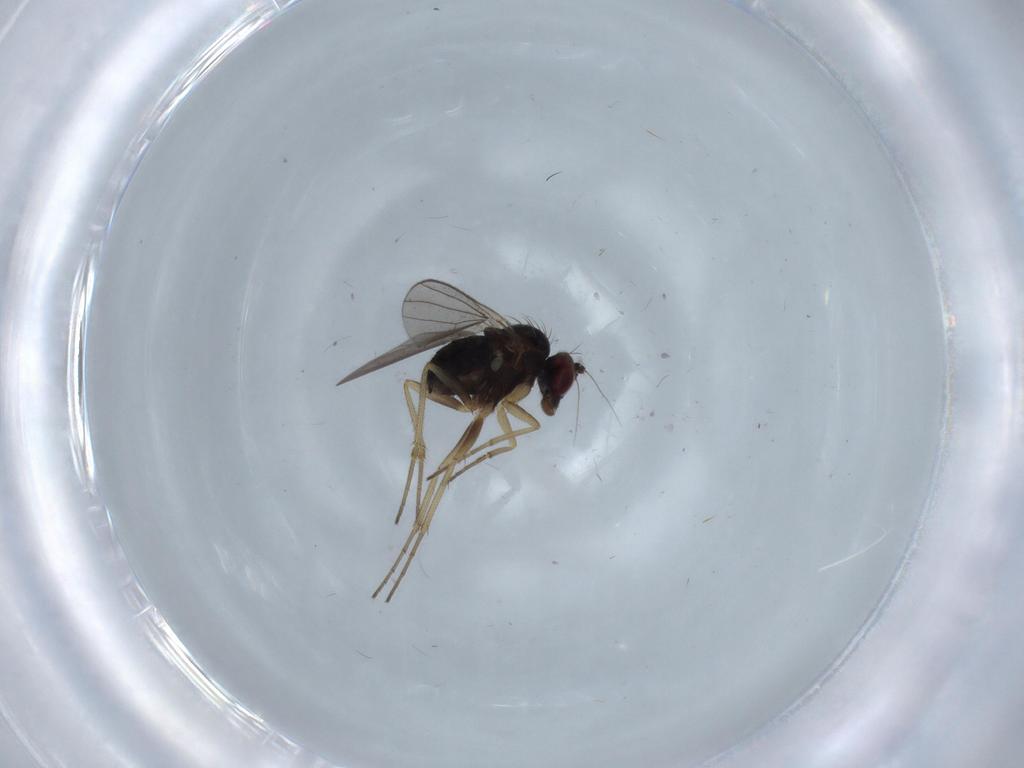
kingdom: Animalia
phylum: Arthropoda
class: Insecta
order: Diptera
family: Dolichopodidae
